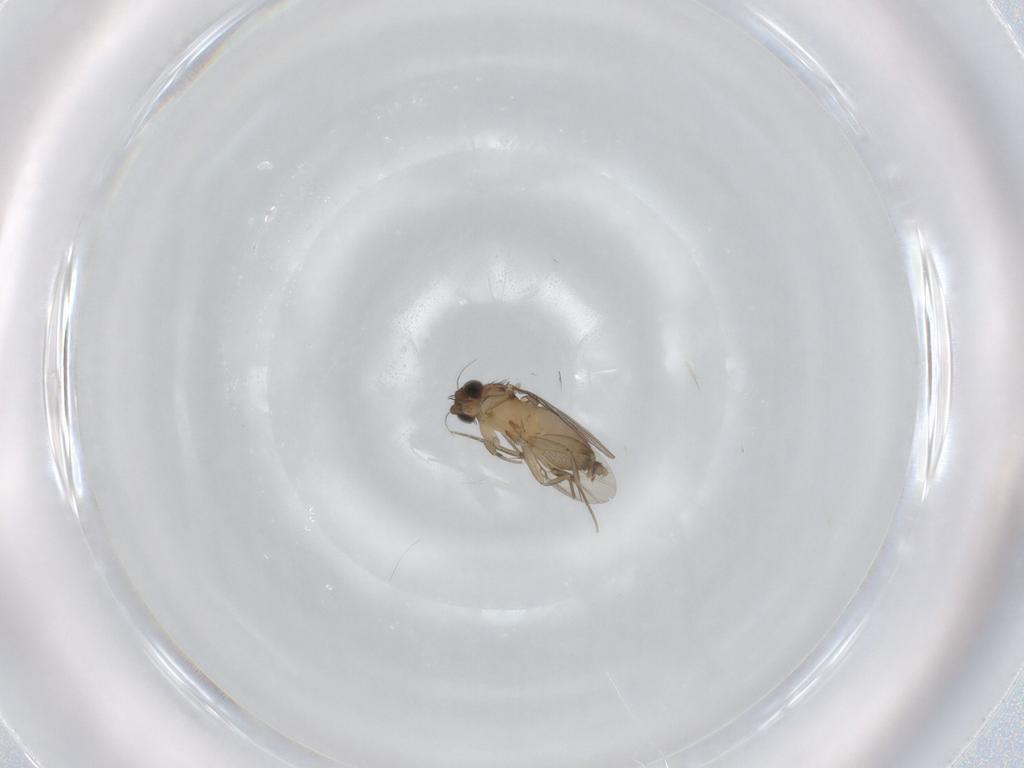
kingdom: Animalia
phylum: Arthropoda
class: Insecta
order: Diptera
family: Phoridae
